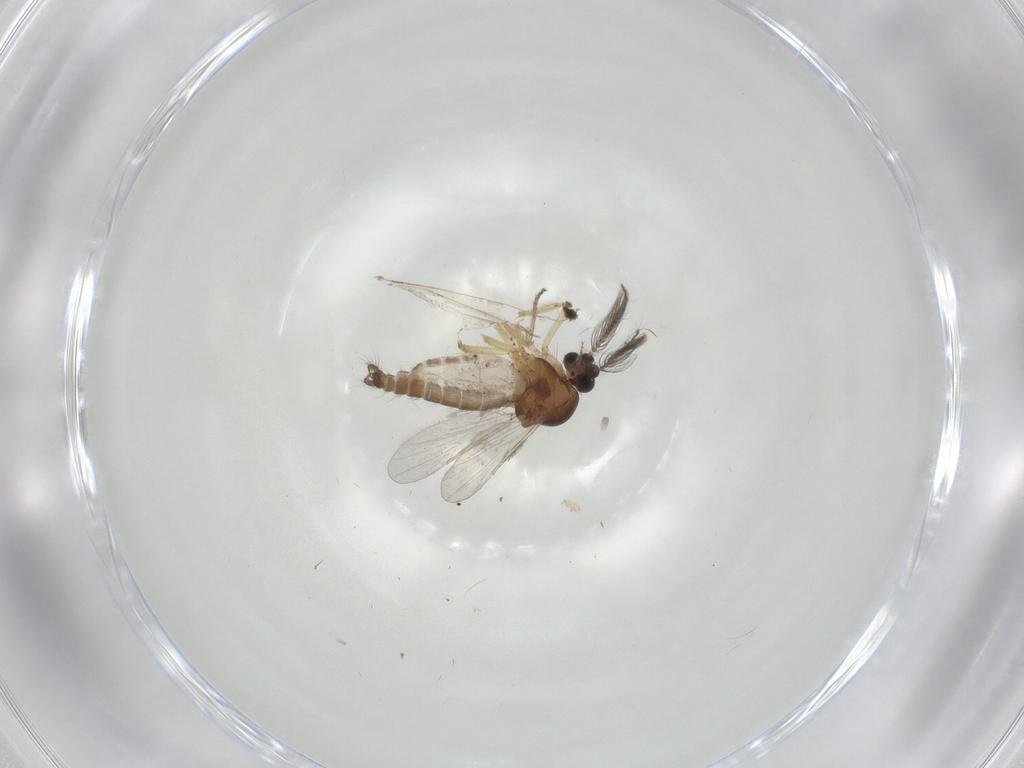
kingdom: Animalia
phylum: Arthropoda
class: Insecta
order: Diptera
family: Ceratopogonidae
